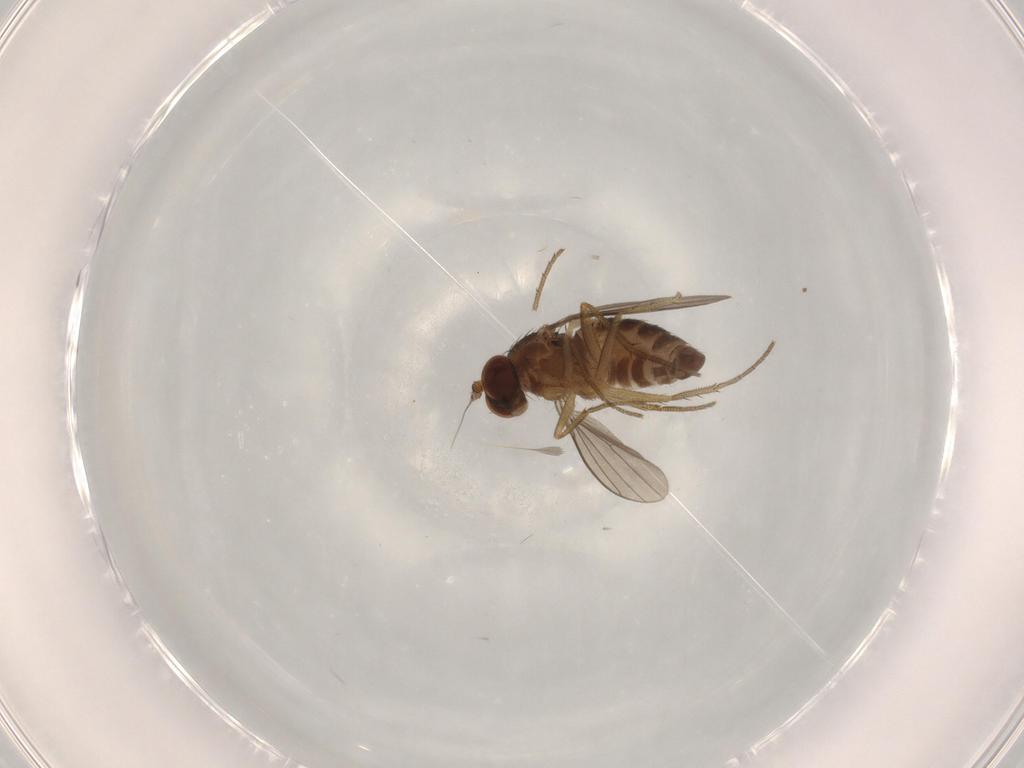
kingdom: Animalia
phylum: Arthropoda
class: Insecta
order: Diptera
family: Dolichopodidae
